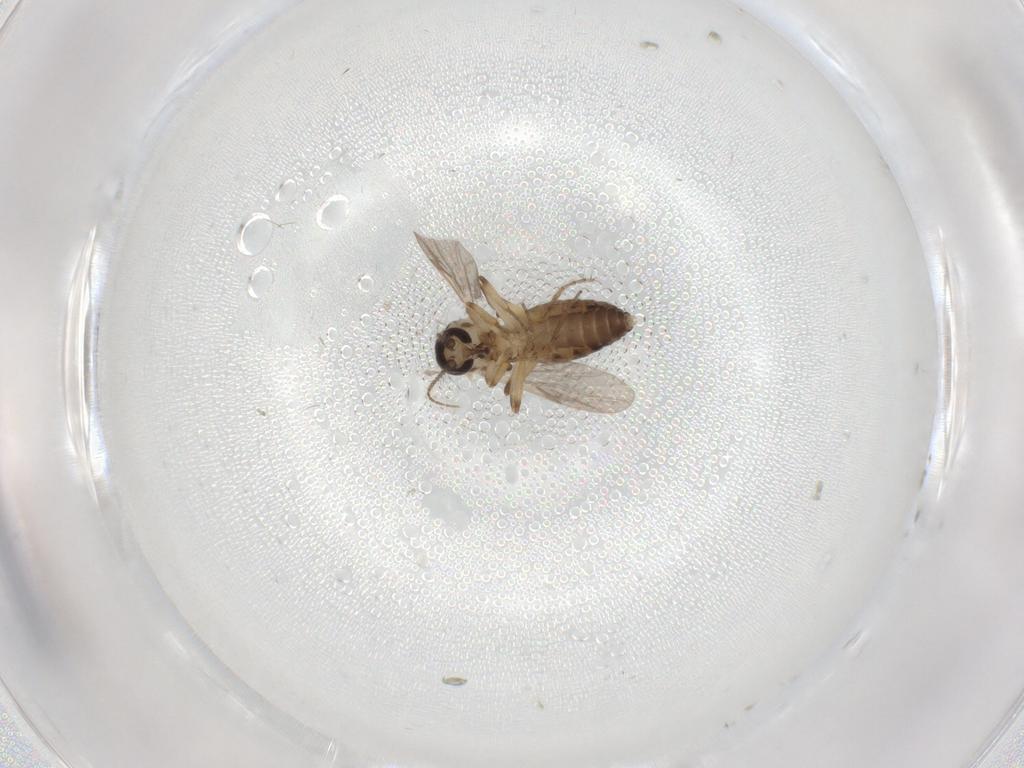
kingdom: Animalia
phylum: Arthropoda
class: Insecta
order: Diptera
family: Ceratopogonidae
